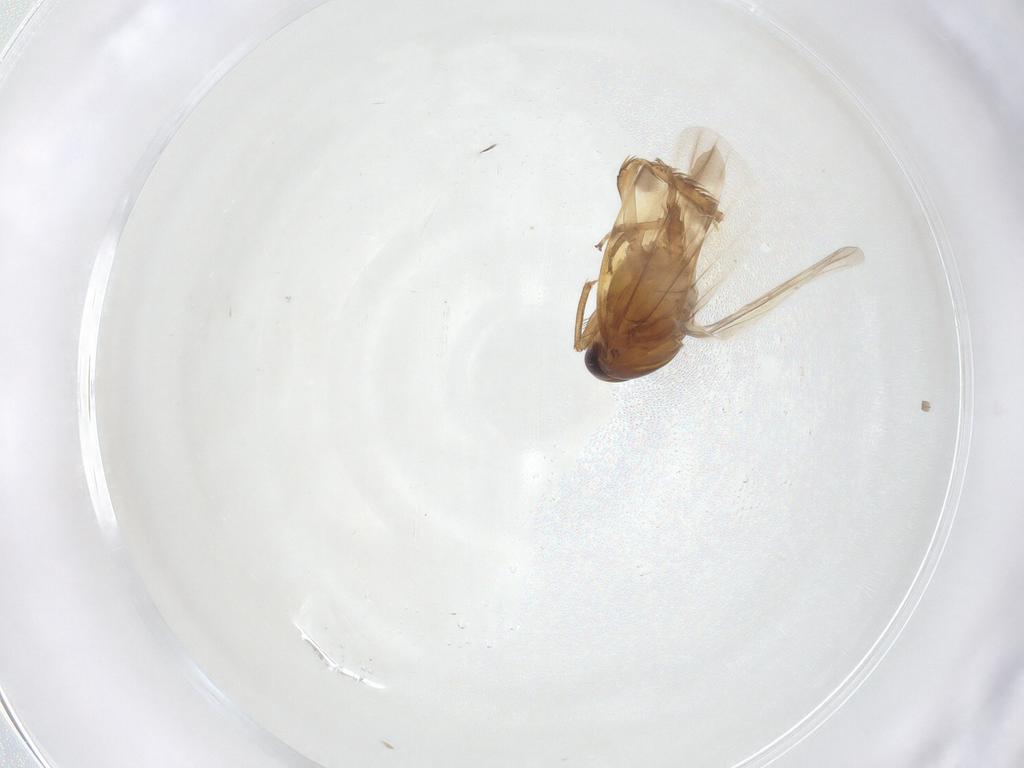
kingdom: Animalia
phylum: Arthropoda
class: Insecta
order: Hemiptera
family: Cicadellidae
